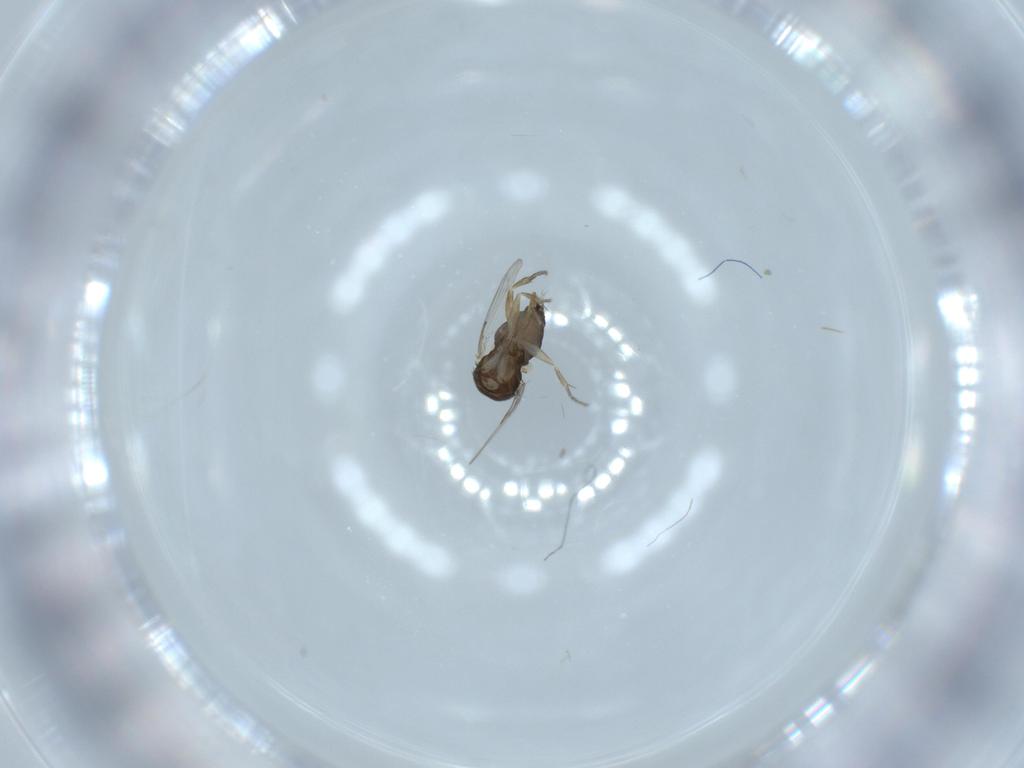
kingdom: Animalia
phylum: Arthropoda
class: Insecta
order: Diptera
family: Phoridae
